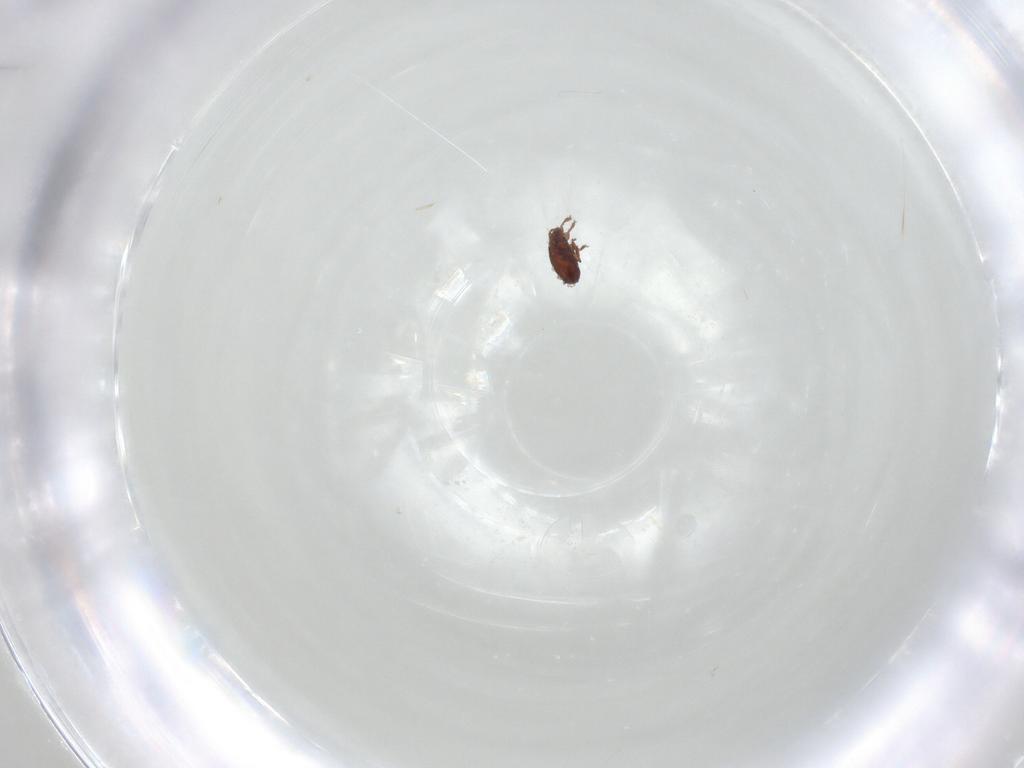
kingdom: Animalia
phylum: Arthropoda
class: Arachnida
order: Sarcoptiformes
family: Scheloribatidae
